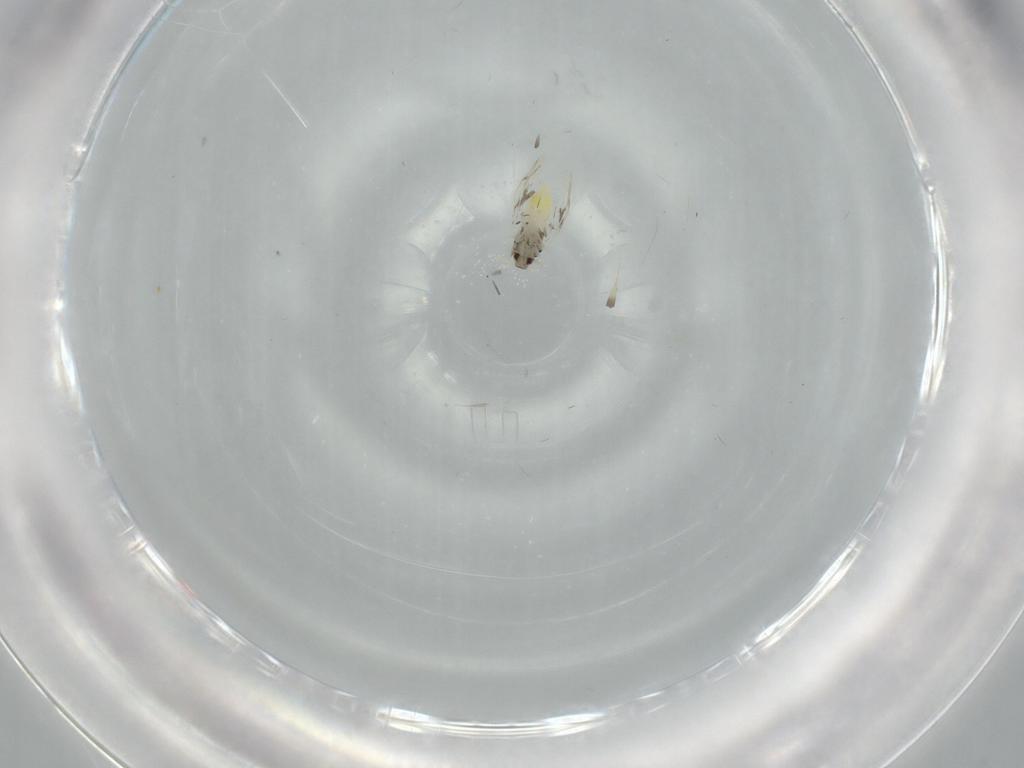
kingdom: Animalia
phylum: Arthropoda
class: Insecta
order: Hemiptera
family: Aleyrodidae
